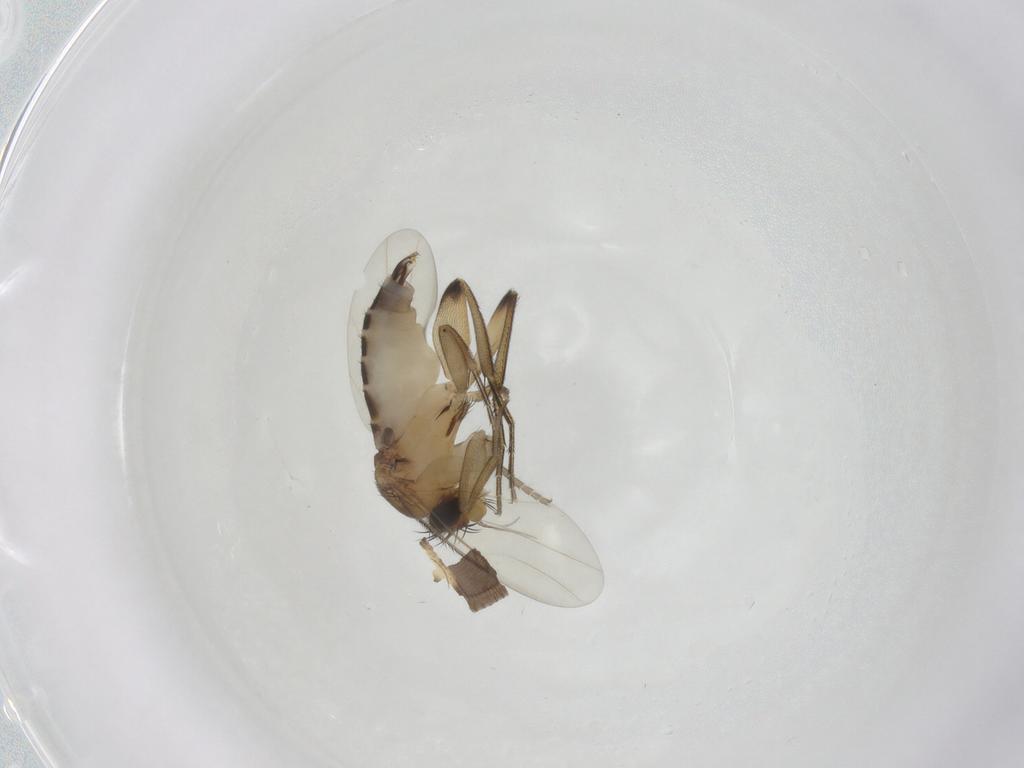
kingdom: Animalia
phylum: Arthropoda
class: Insecta
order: Diptera
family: Phoridae
